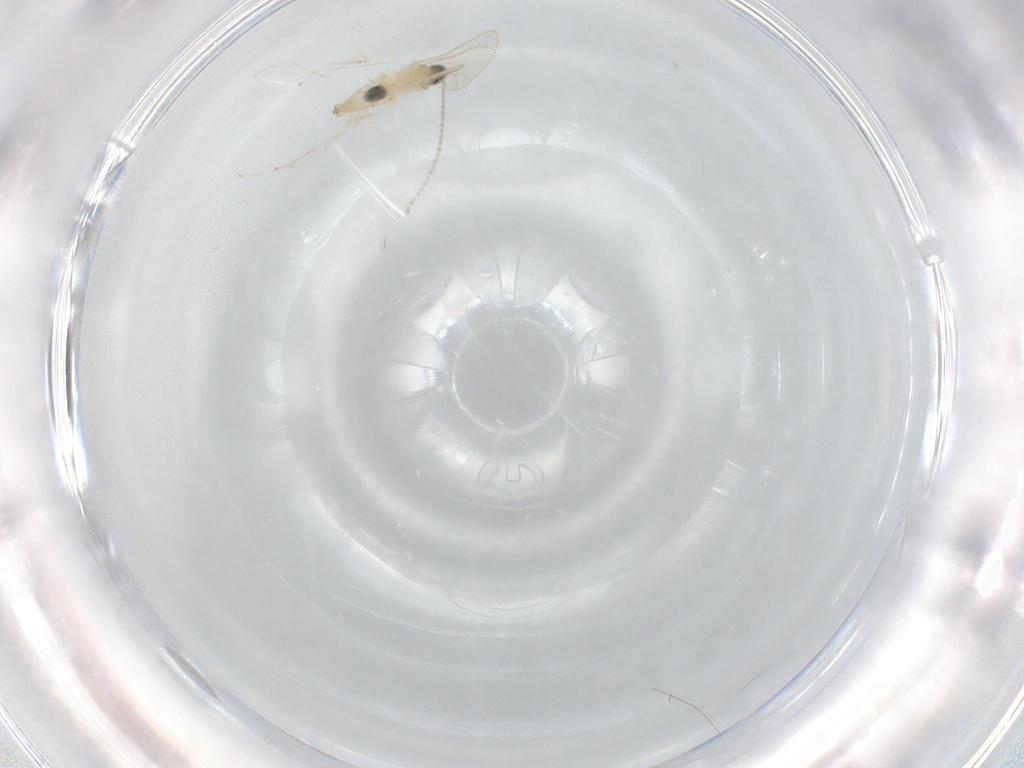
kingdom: Animalia
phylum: Arthropoda
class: Insecta
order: Diptera
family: Cecidomyiidae
